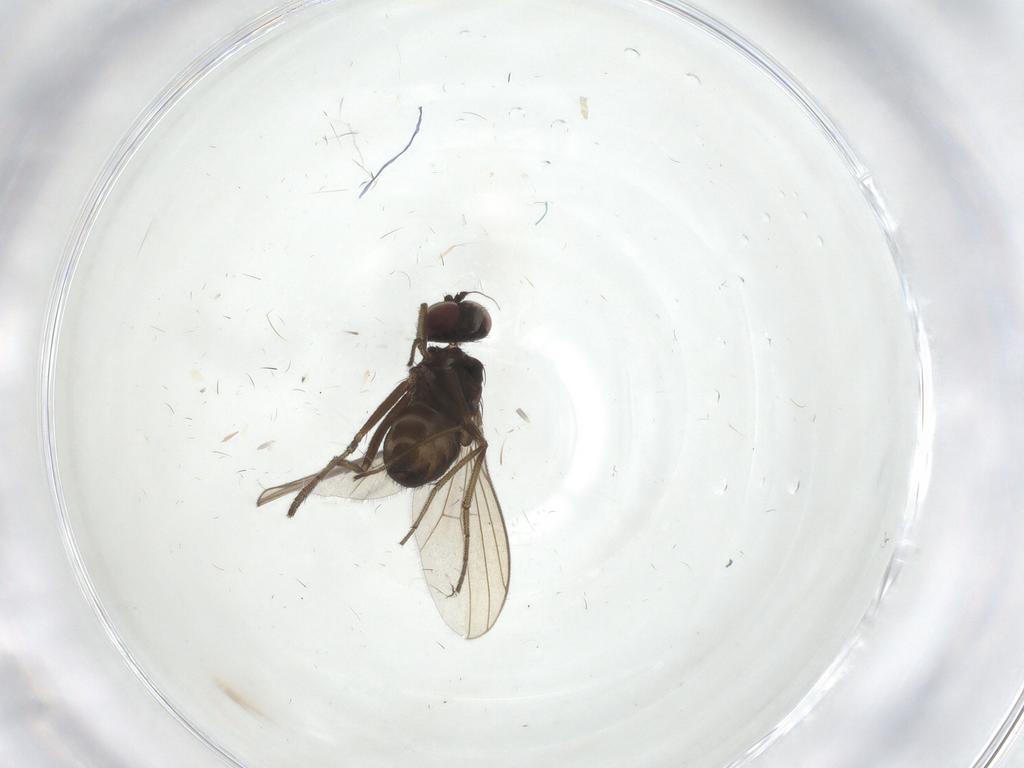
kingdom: Animalia
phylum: Arthropoda
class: Insecta
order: Diptera
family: Dolichopodidae
